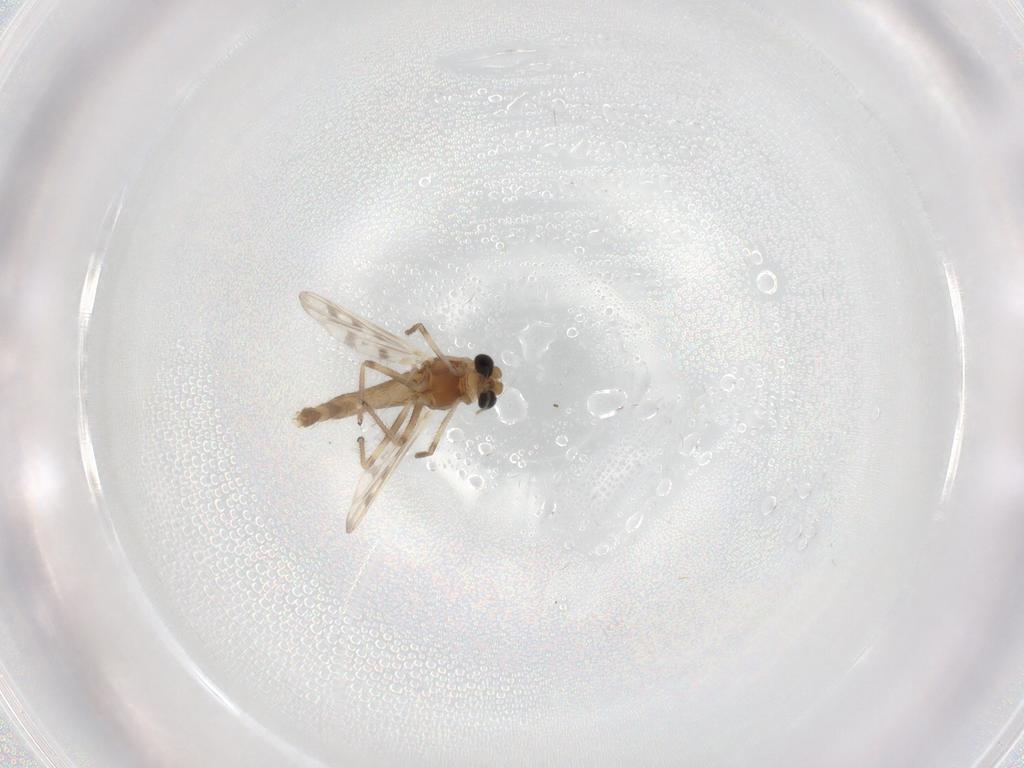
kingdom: Animalia
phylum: Arthropoda
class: Insecta
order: Diptera
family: Chironomidae
